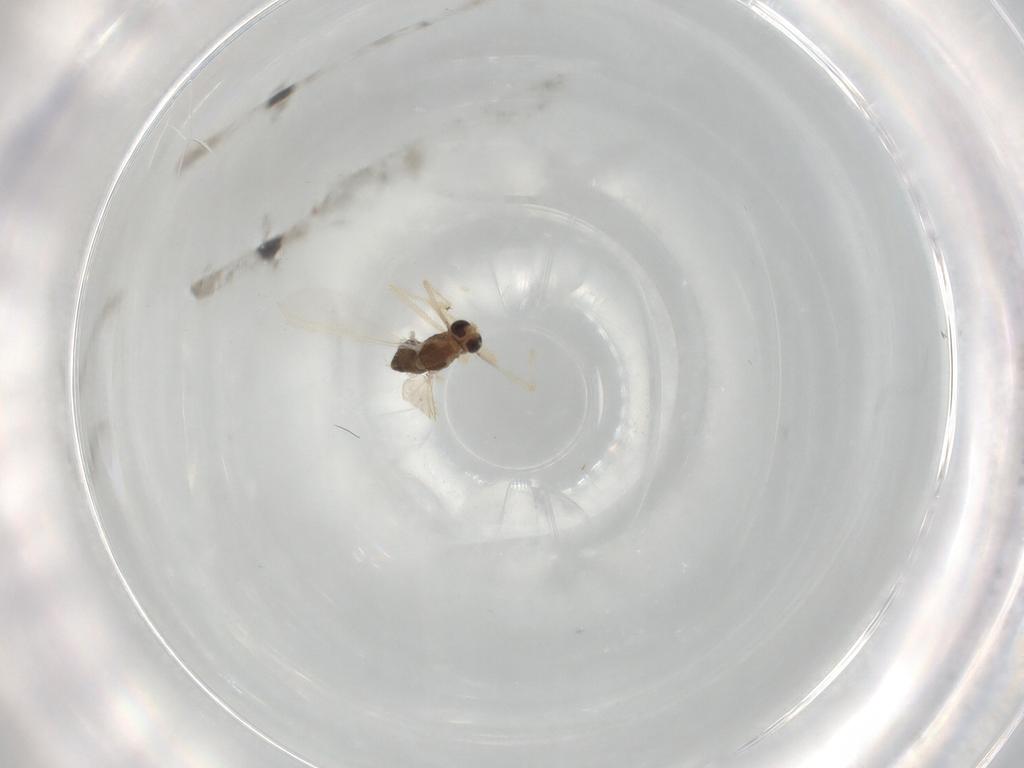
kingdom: Animalia
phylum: Arthropoda
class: Insecta
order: Diptera
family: Chironomidae
